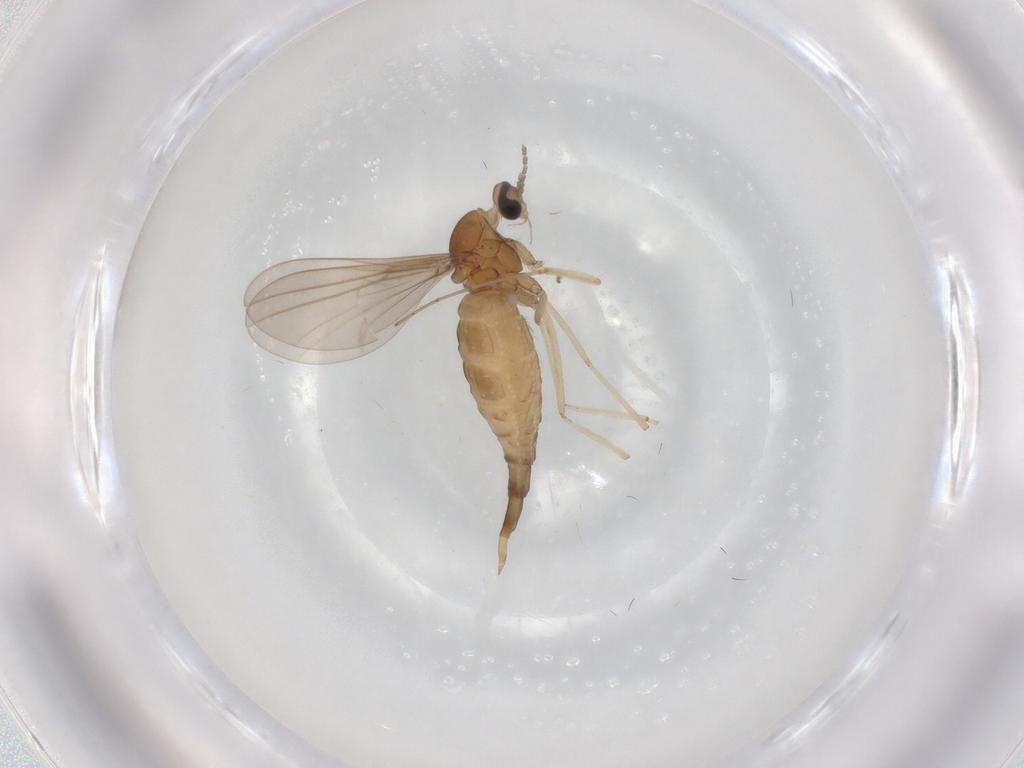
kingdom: Animalia
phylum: Arthropoda
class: Insecta
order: Diptera
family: Cecidomyiidae
